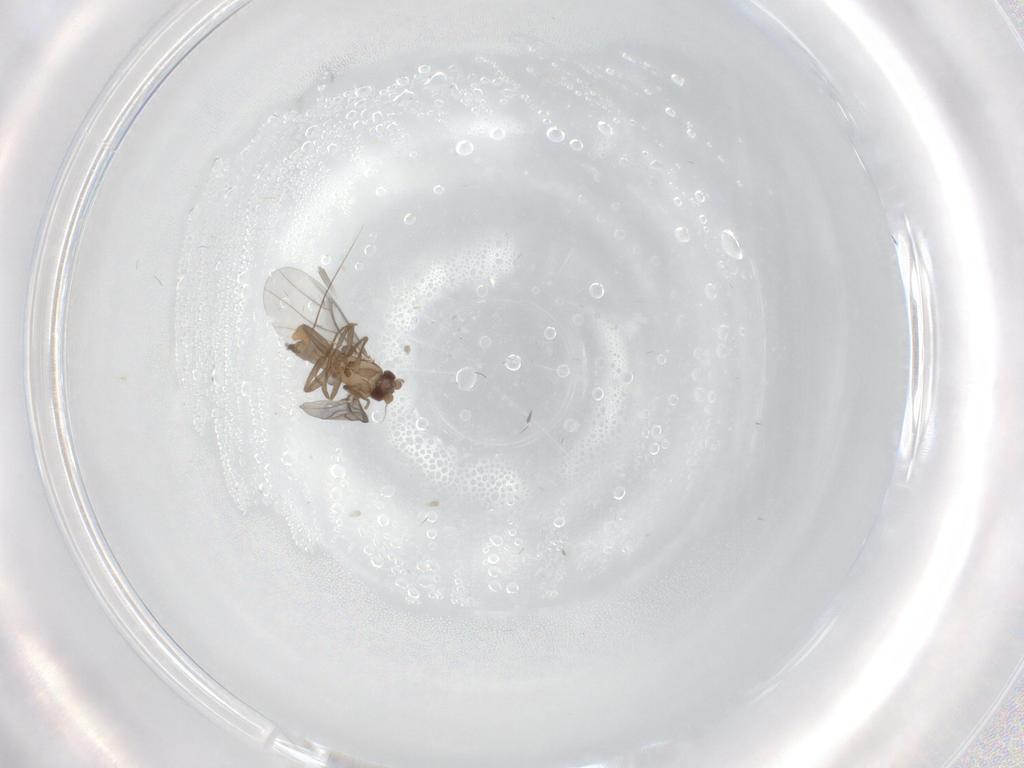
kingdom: Animalia
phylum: Arthropoda
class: Insecta
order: Diptera
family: Dolichopodidae
